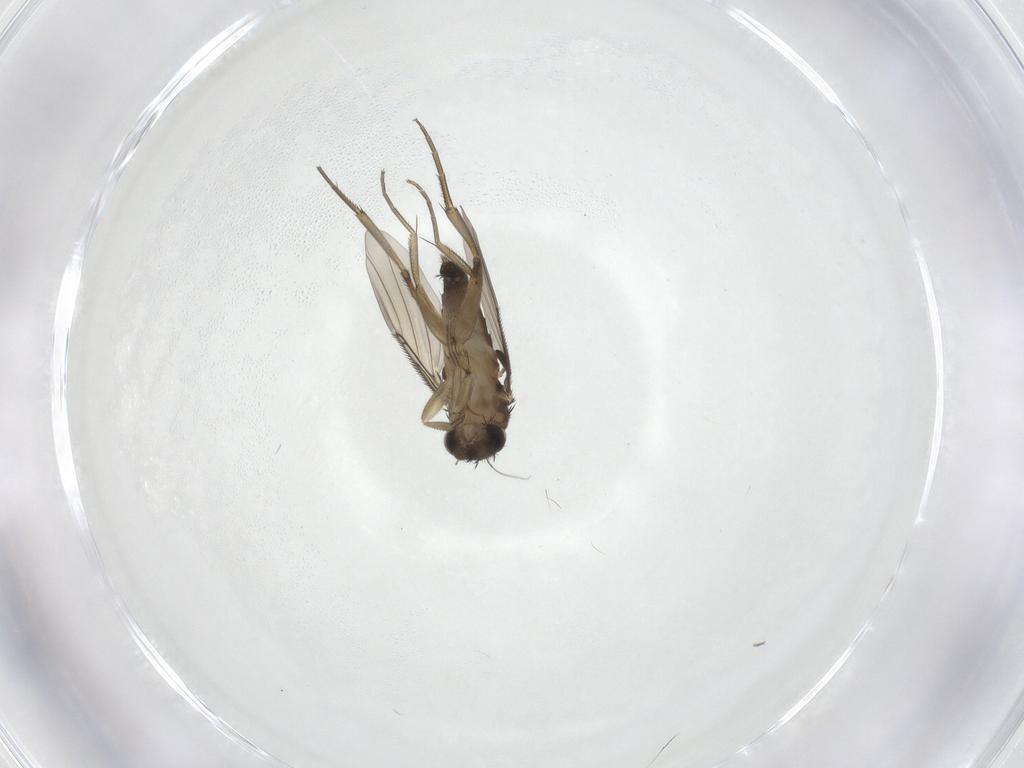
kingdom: Animalia
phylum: Arthropoda
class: Insecta
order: Diptera
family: Phoridae
